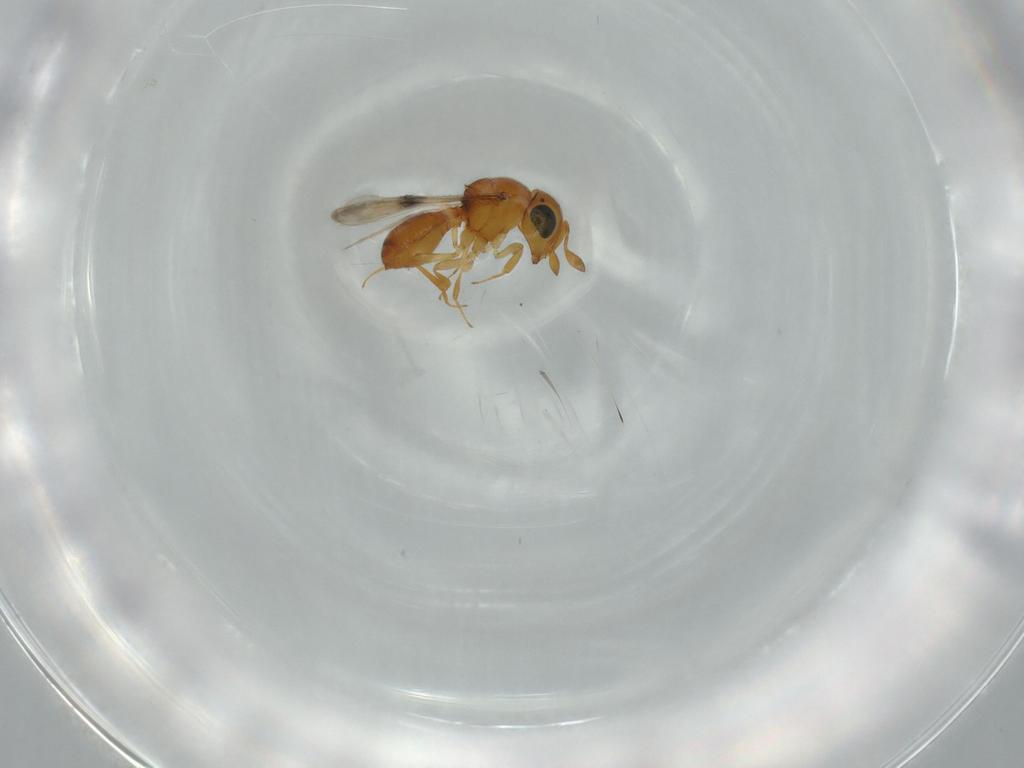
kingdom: Animalia
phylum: Arthropoda
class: Insecta
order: Hymenoptera
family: Scelionidae
